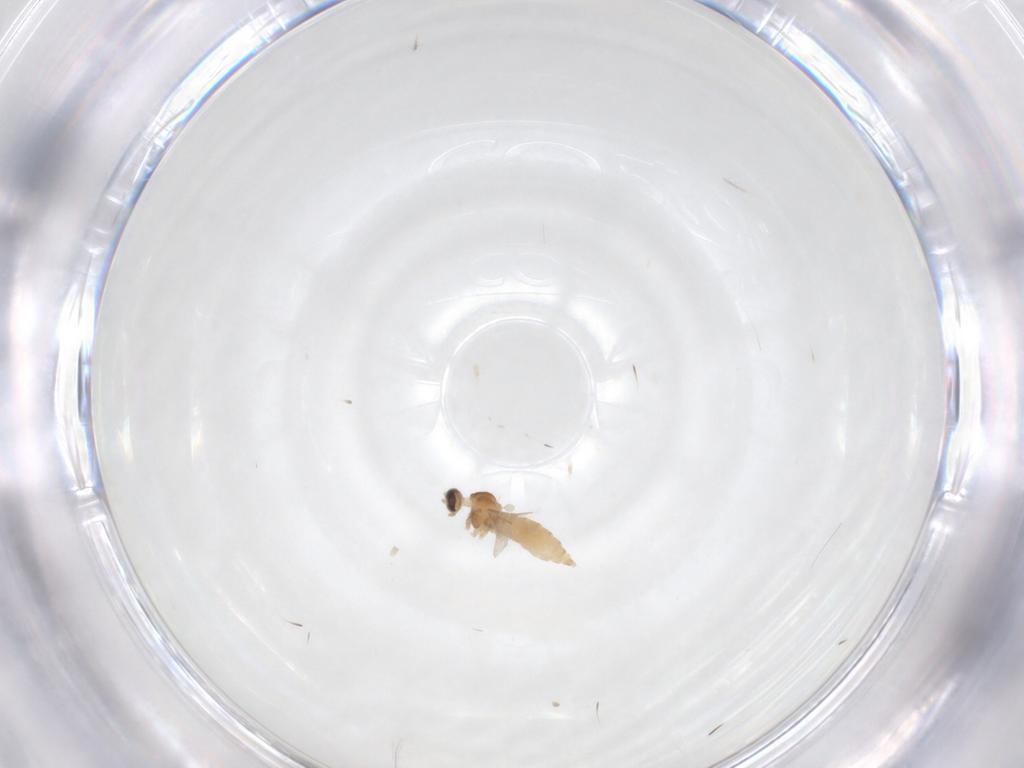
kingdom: Animalia
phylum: Arthropoda
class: Insecta
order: Diptera
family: Cecidomyiidae
